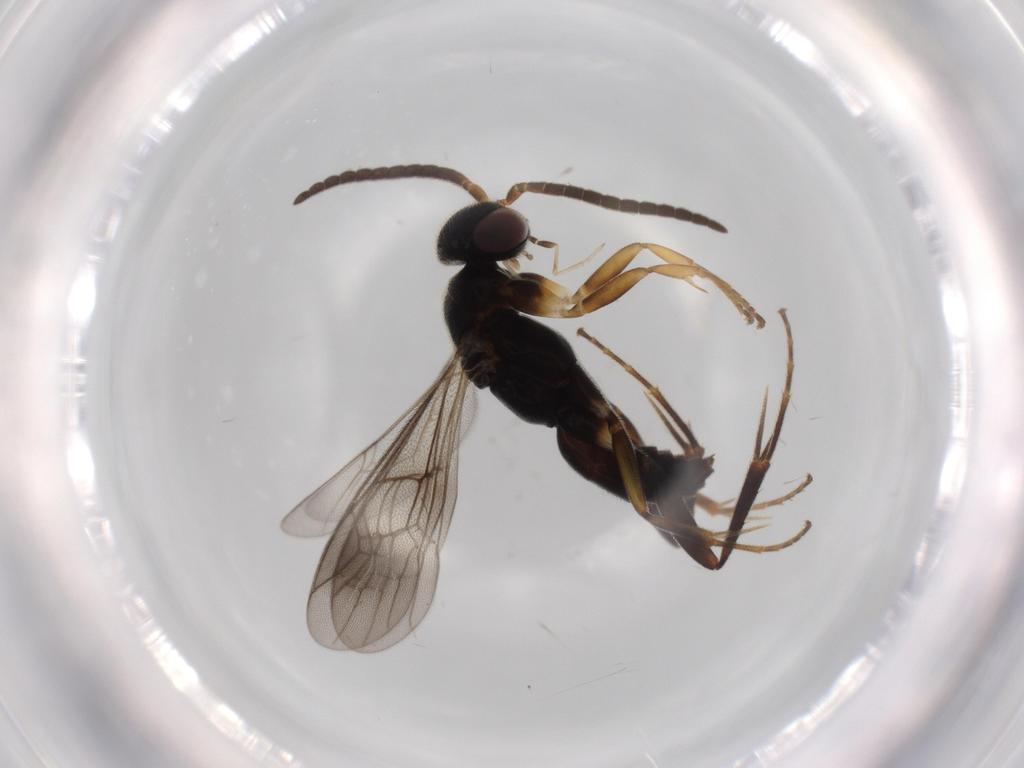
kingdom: Animalia
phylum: Arthropoda
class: Insecta
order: Hymenoptera
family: Pompilidae
